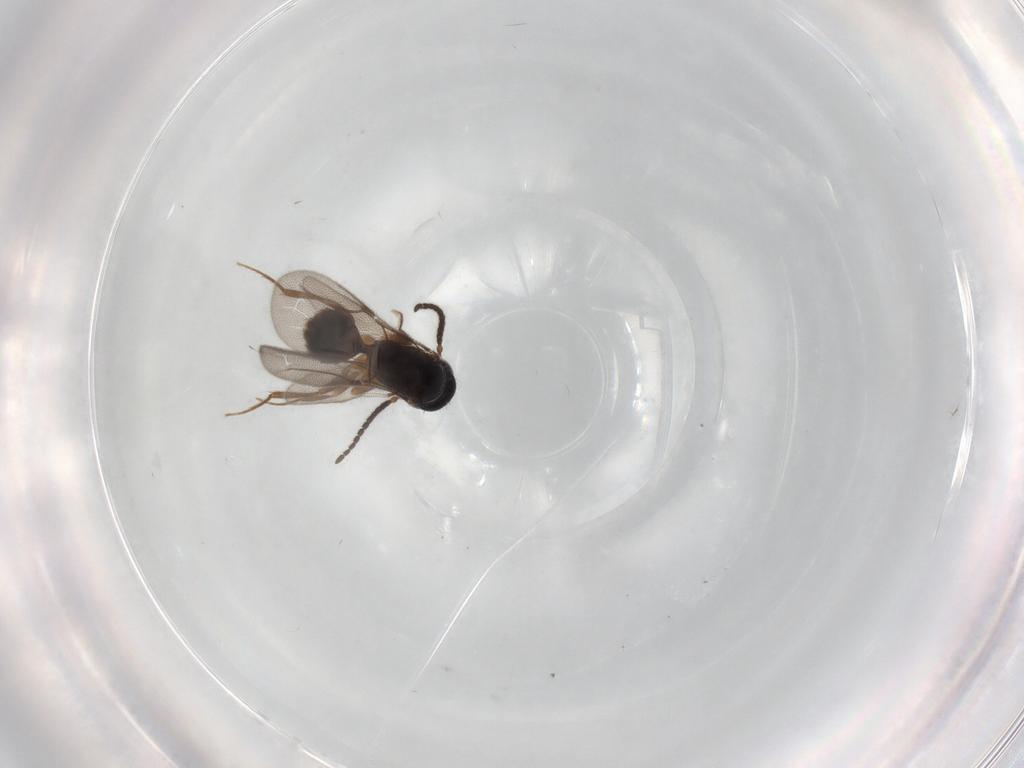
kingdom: Animalia
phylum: Arthropoda
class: Insecta
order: Hymenoptera
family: Bethylidae
